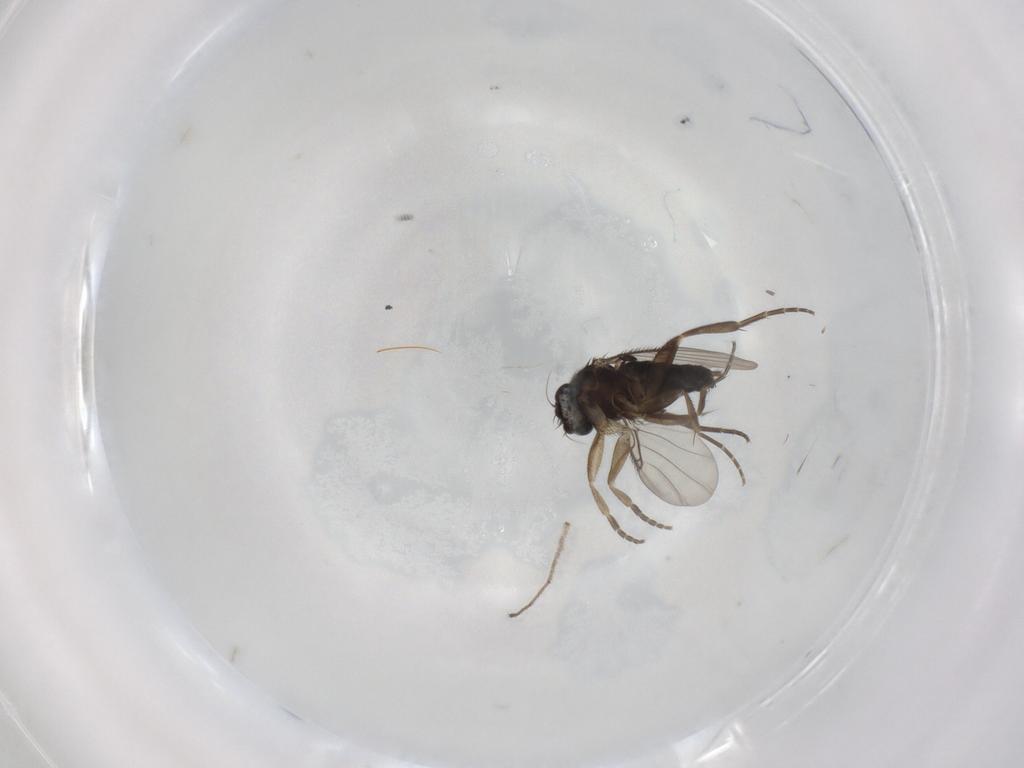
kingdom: Animalia
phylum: Arthropoda
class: Insecta
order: Diptera
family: Phoridae
